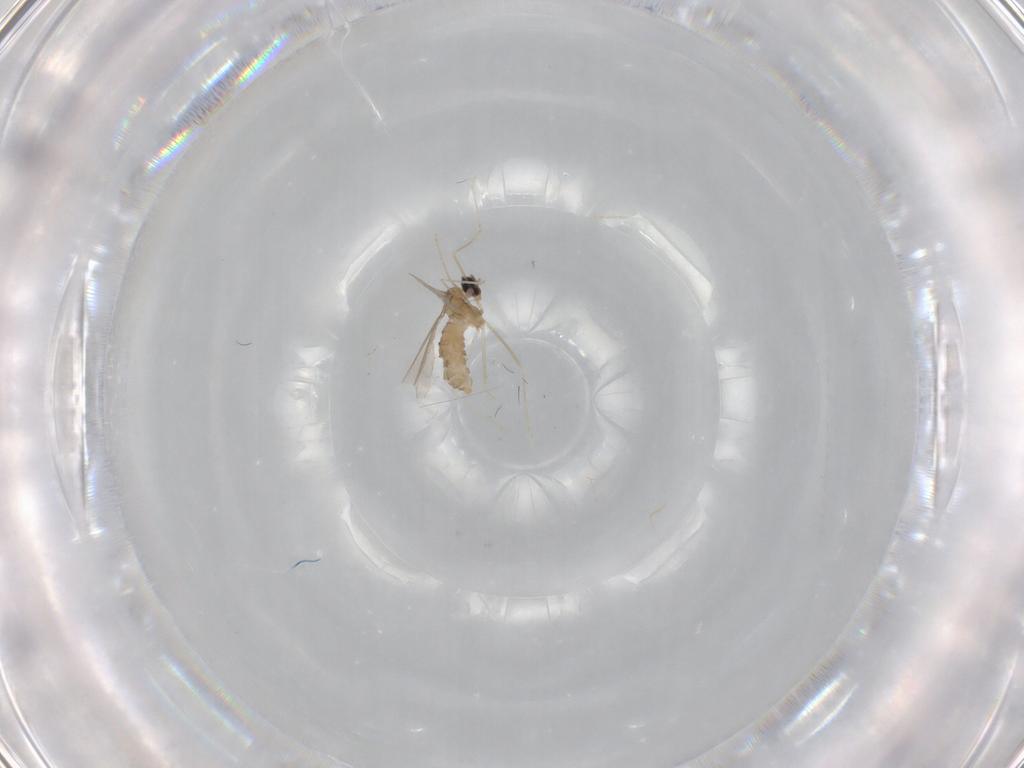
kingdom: Animalia
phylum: Arthropoda
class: Insecta
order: Diptera
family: Cecidomyiidae
